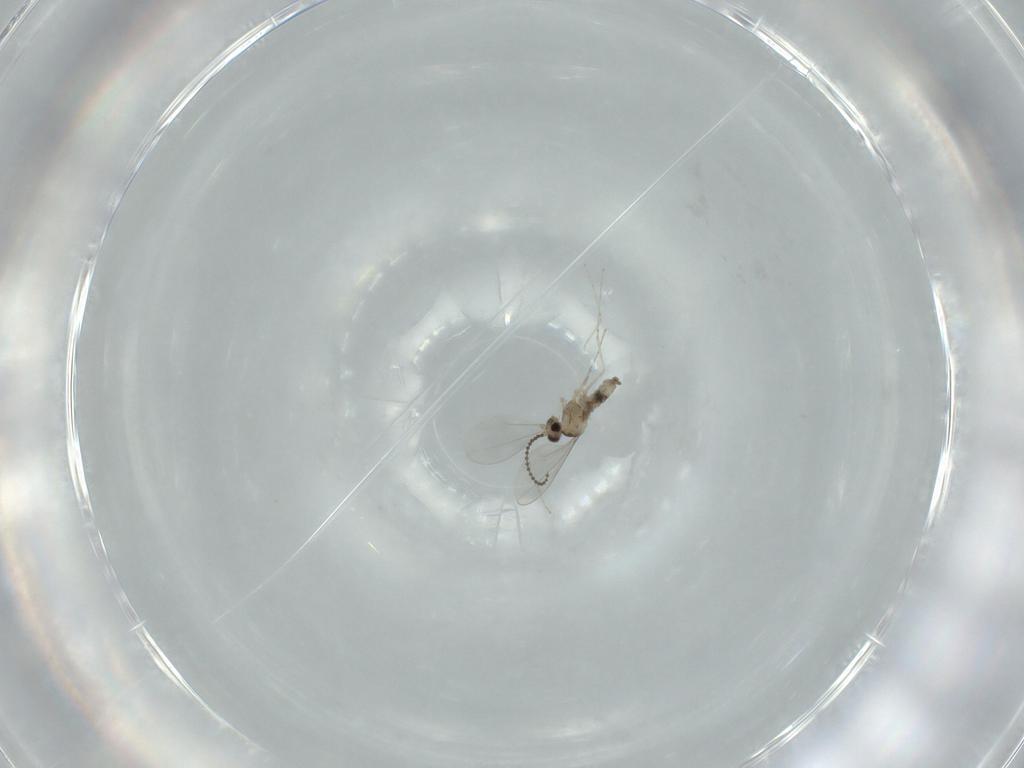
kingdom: Animalia
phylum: Arthropoda
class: Insecta
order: Diptera
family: Cecidomyiidae
